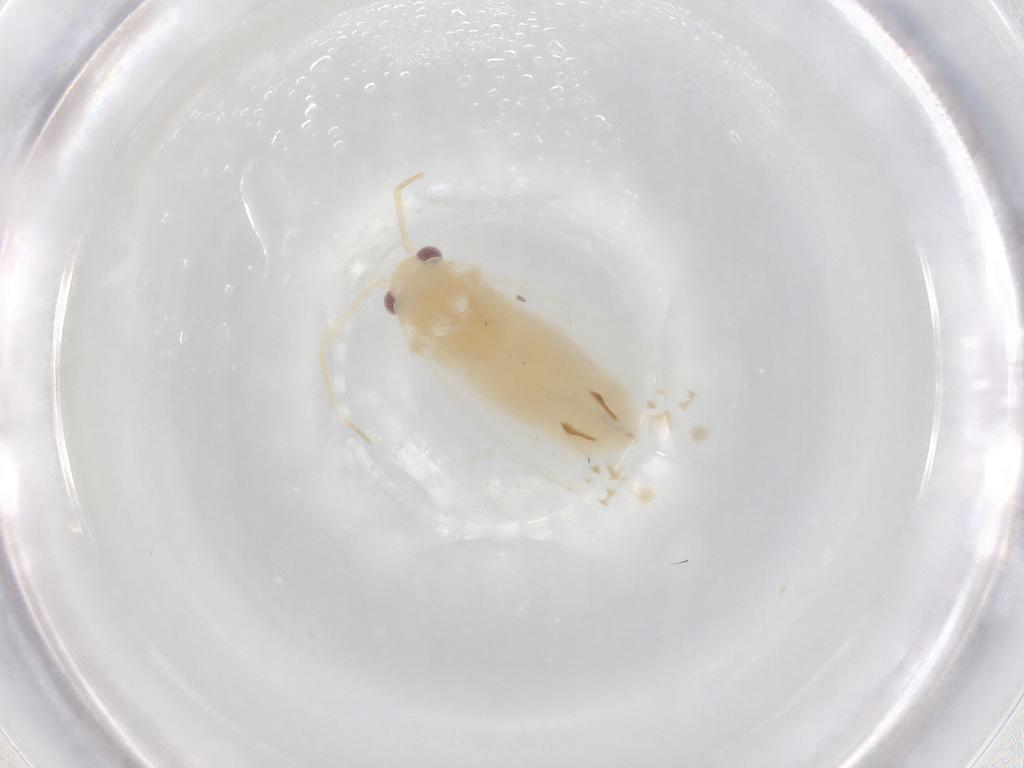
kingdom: Animalia
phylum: Arthropoda
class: Insecta
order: Hemiptera
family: Miridae
